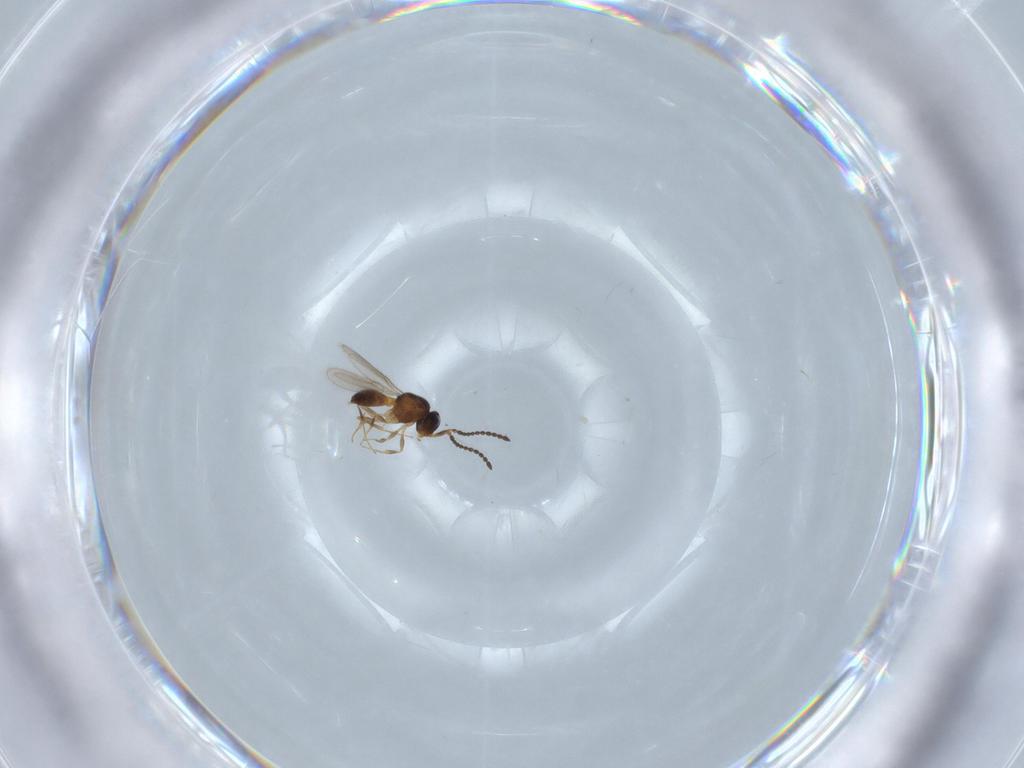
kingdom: Animalia
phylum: Arthropoda
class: Insecta
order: Hymenoptera
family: Scelionidae
